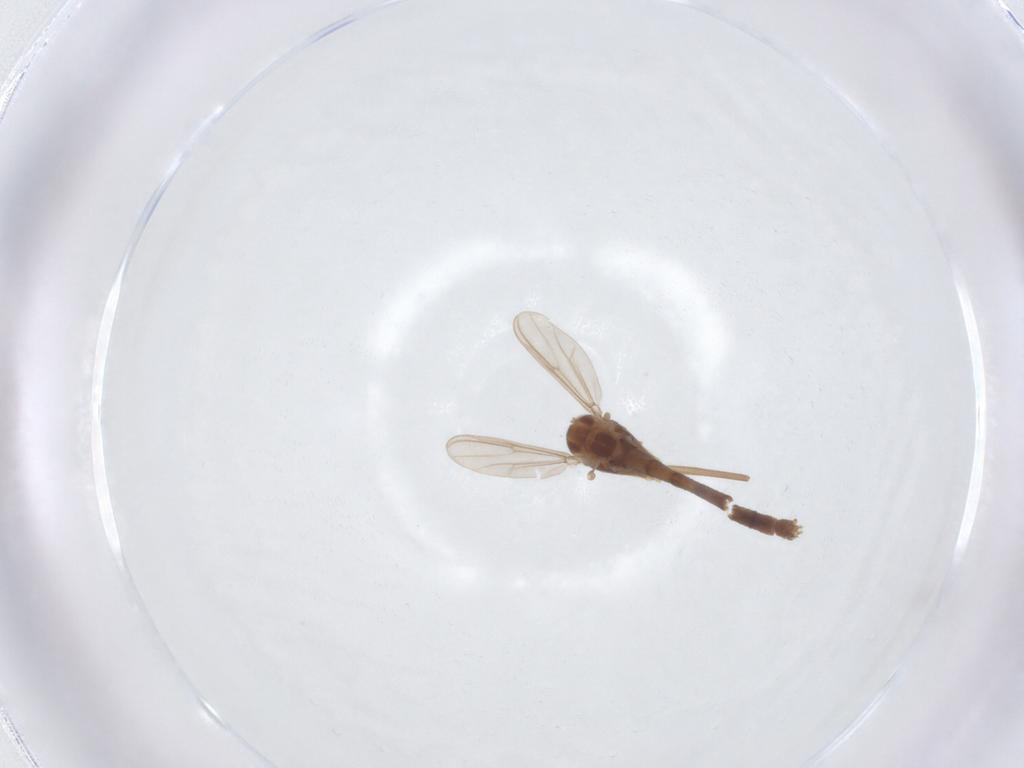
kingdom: Animalia
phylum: Arthropoda
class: Insecta
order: Diptera
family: Chironomidae
